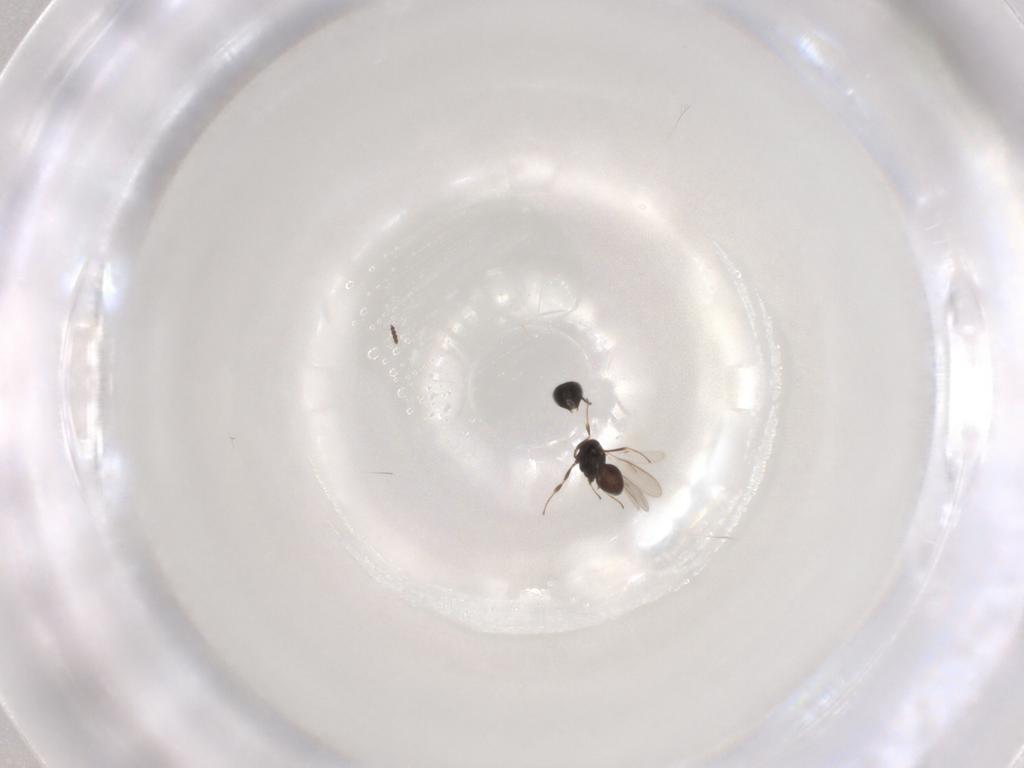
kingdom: Animalia
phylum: Arthropoda
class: Insecta
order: Hymenoptera
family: Scelionidae
